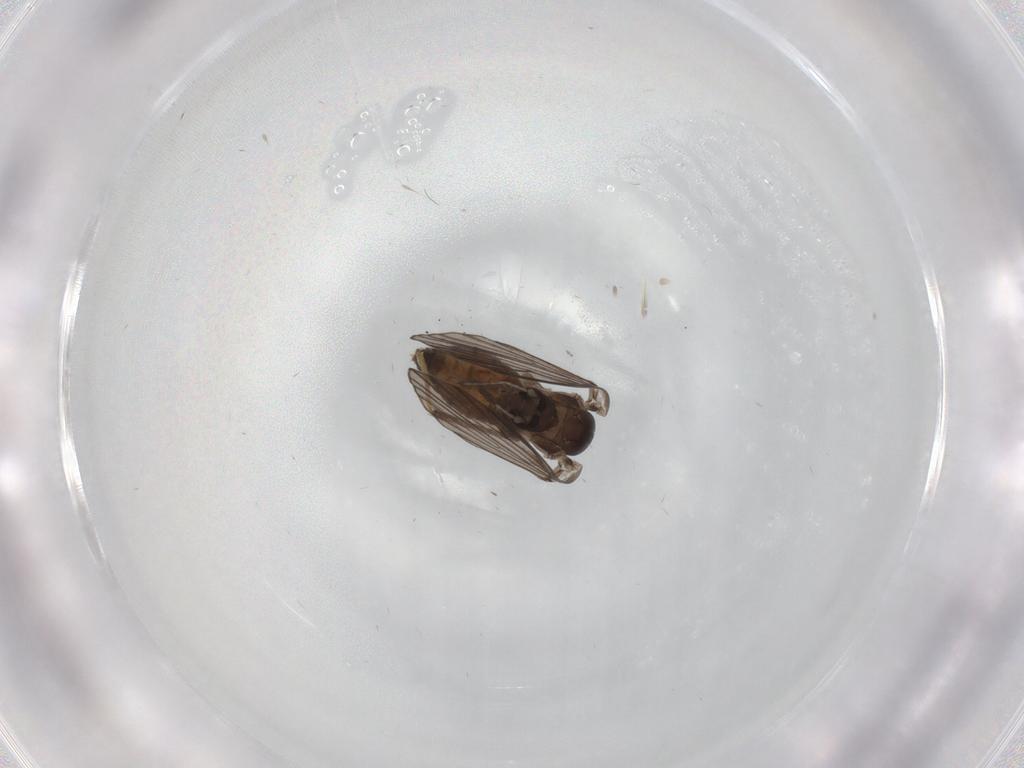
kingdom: Animalia
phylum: Arthropoda
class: Insecta
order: Diptera
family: Psychodidae
